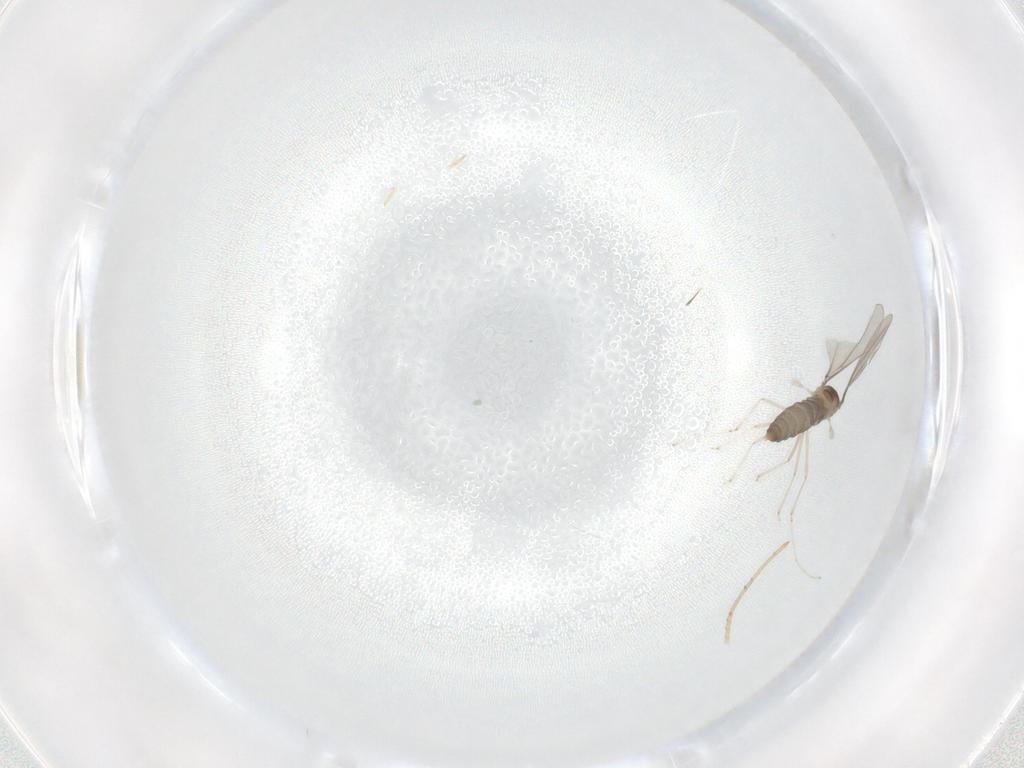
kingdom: Animalia
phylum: Arthropoda
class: Insecta
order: Diptera
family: Cecidomyiidae
